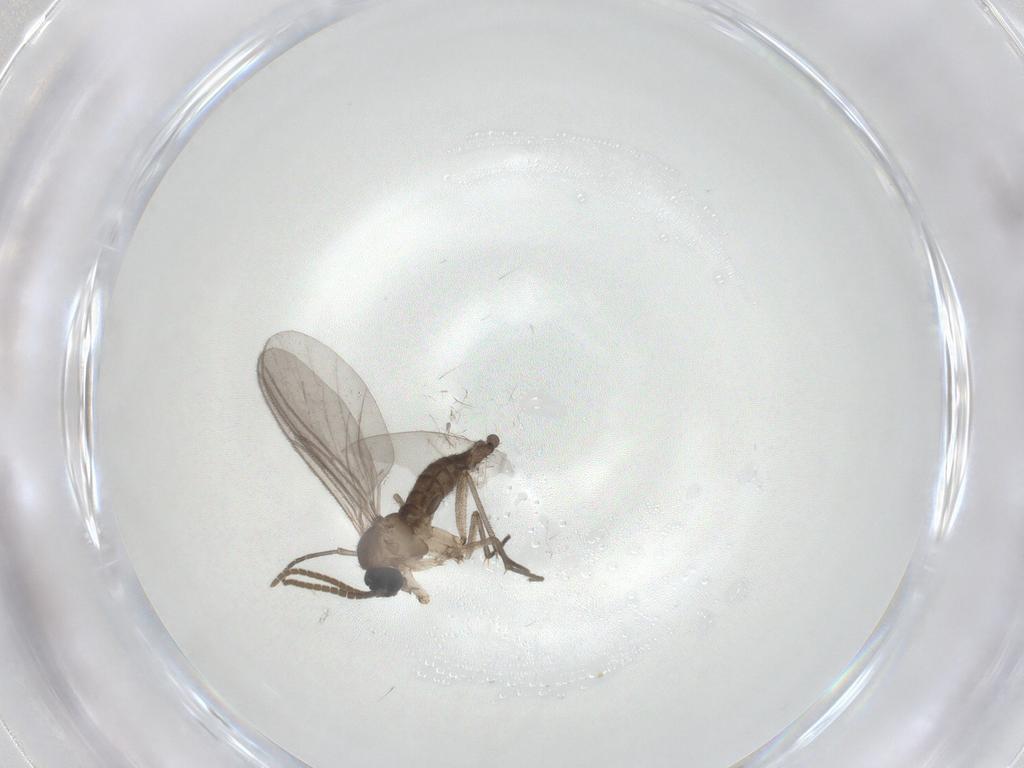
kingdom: Animalia
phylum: Arthropoda
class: Insecta
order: Diptera
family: Cecidomyiidae
